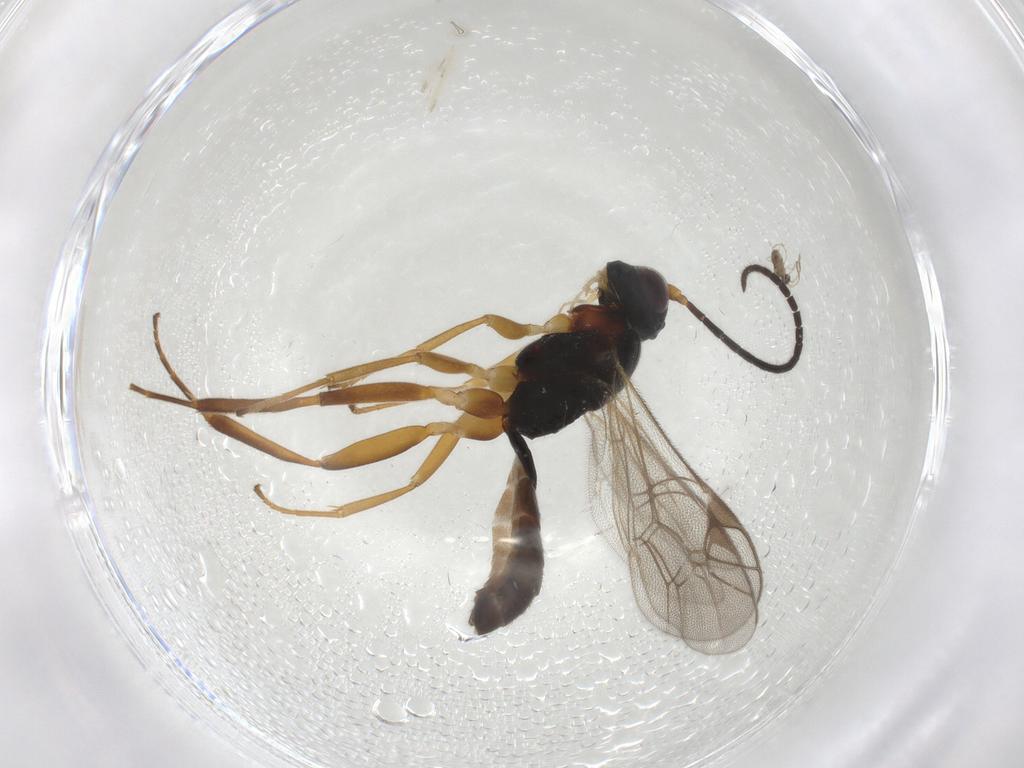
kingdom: Animalia
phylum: Arthropoda
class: Insecta
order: Hymenoptera
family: Ichneumonidae
